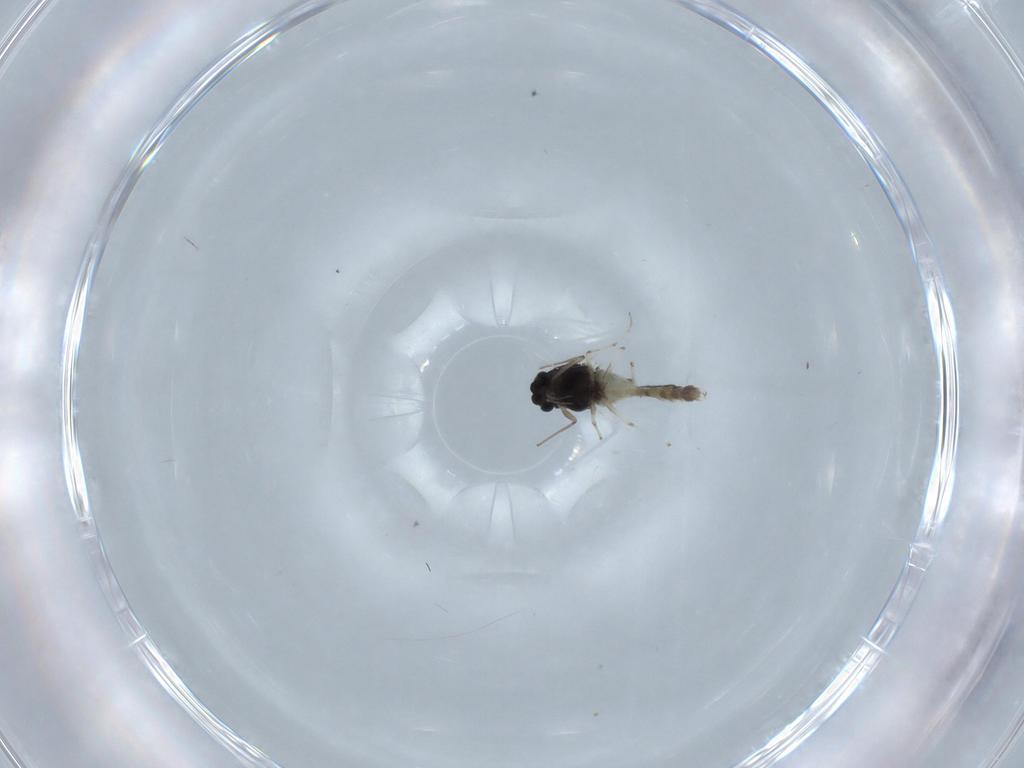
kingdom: Animalia
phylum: Arthropoda
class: Insecta
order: Diptera
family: Chironomidae
